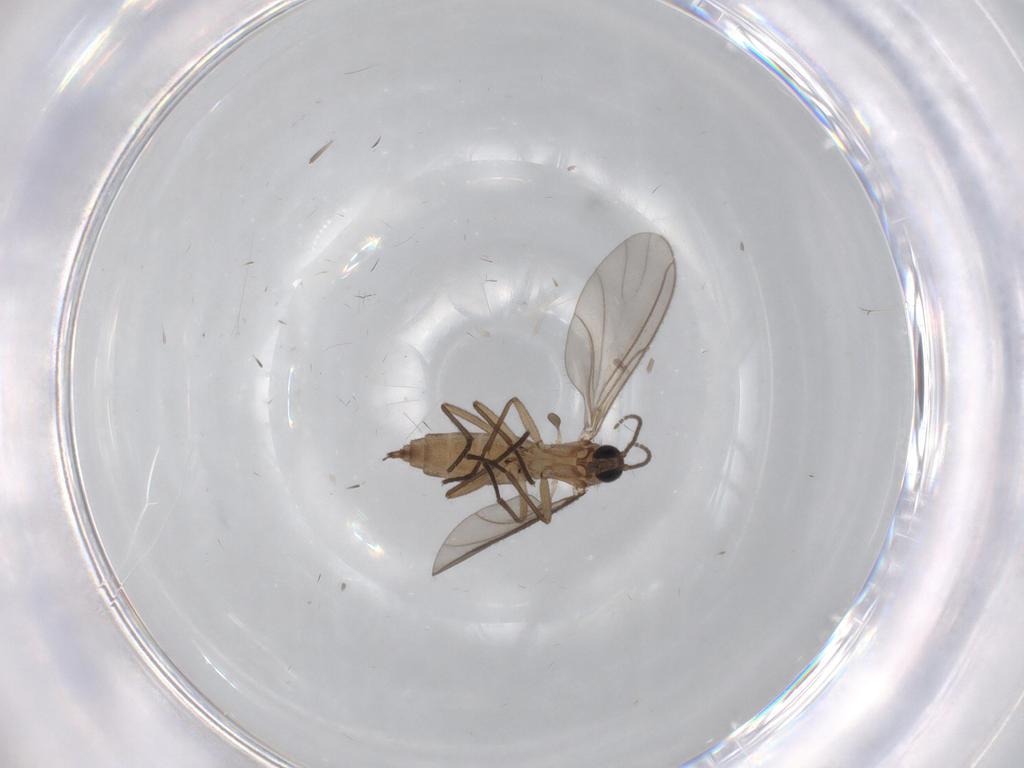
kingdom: Animalia
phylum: Arthropoda
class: Insecta
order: Diptera
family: Sciaridae
